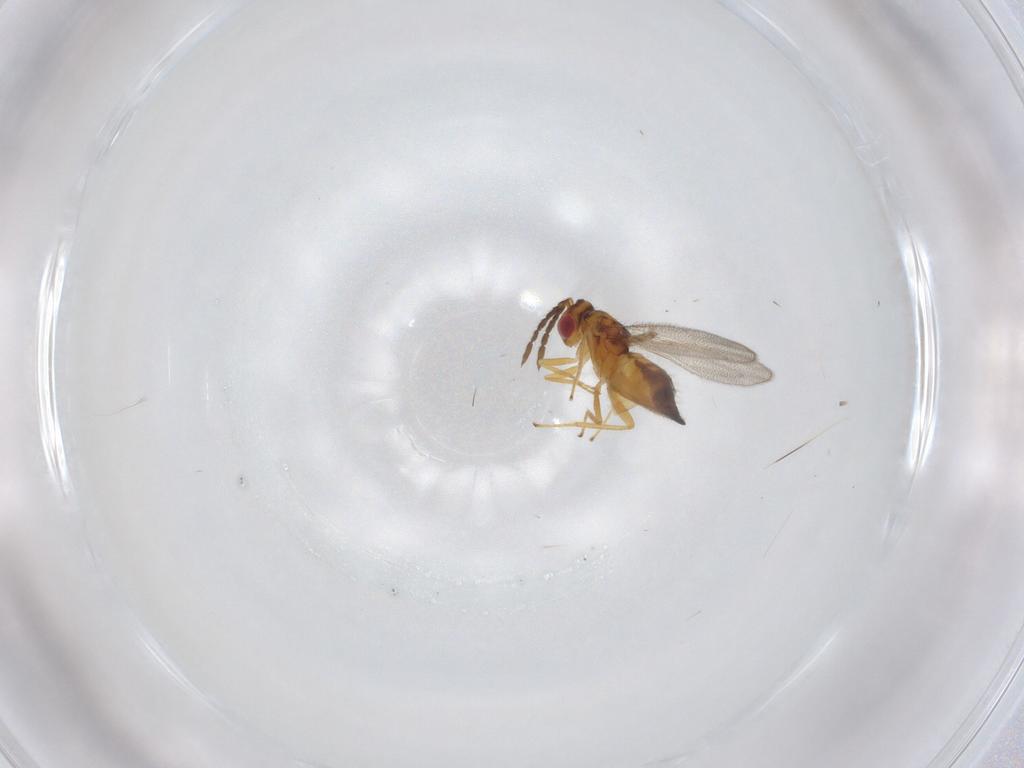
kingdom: Animalia
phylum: Arthropoda
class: Insecta
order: Hymenoptera
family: Eulophidae
